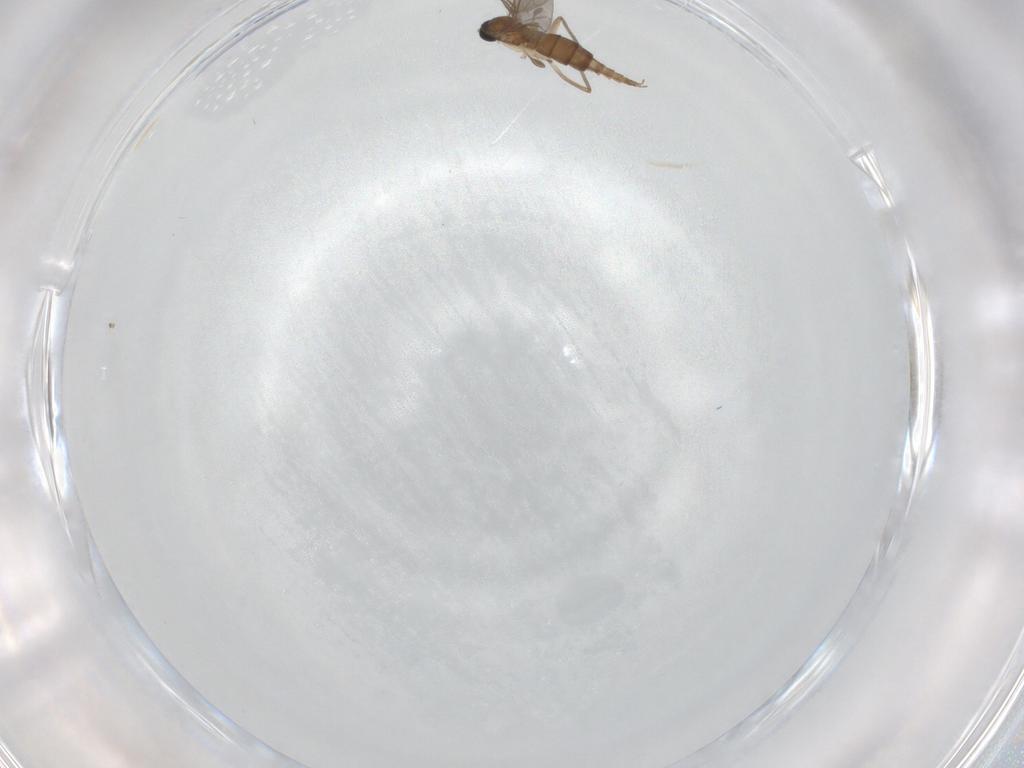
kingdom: Animalia
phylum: Arthropoda
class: Insecta
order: Diptera
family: Sciaridae
